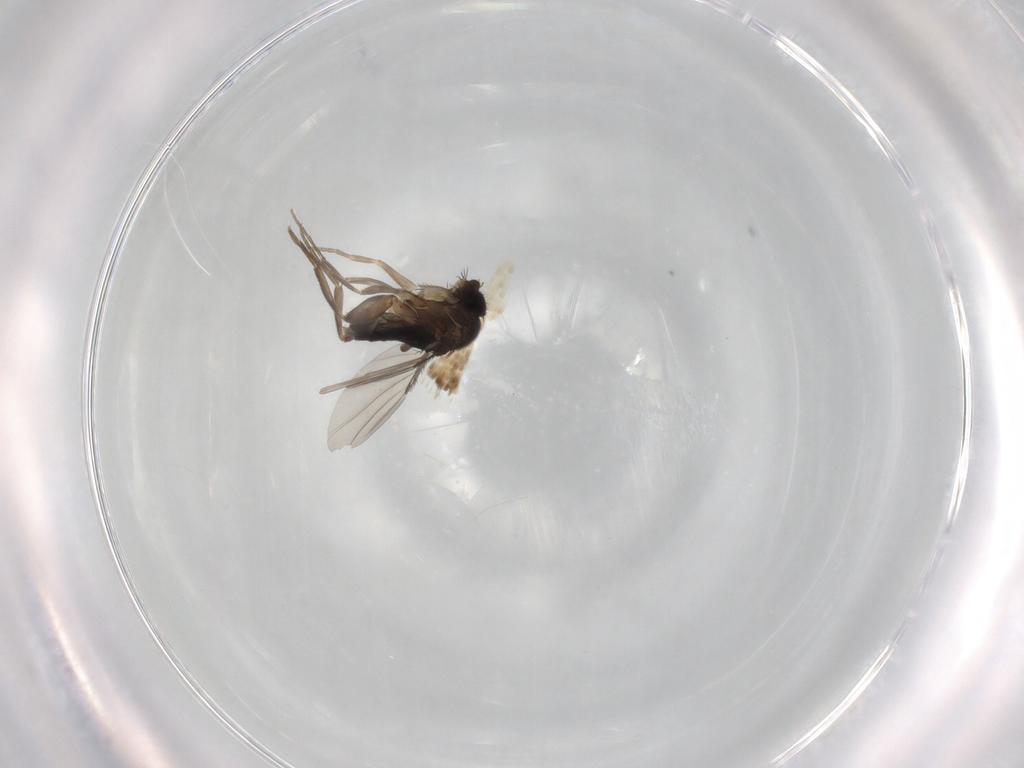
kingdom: Animalia
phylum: Arthropoda
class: Insecta
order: Diptera
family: Phoridae
